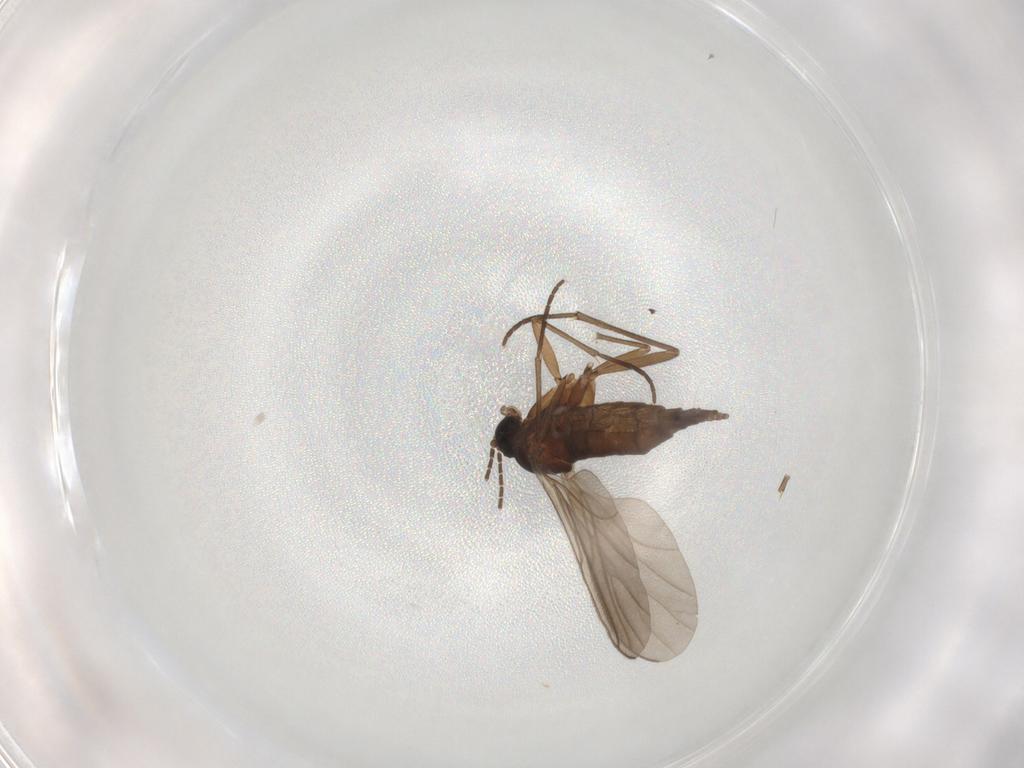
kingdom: Animalia
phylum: Arthropoda
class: Insecta
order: Diptera
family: Sciaridae
